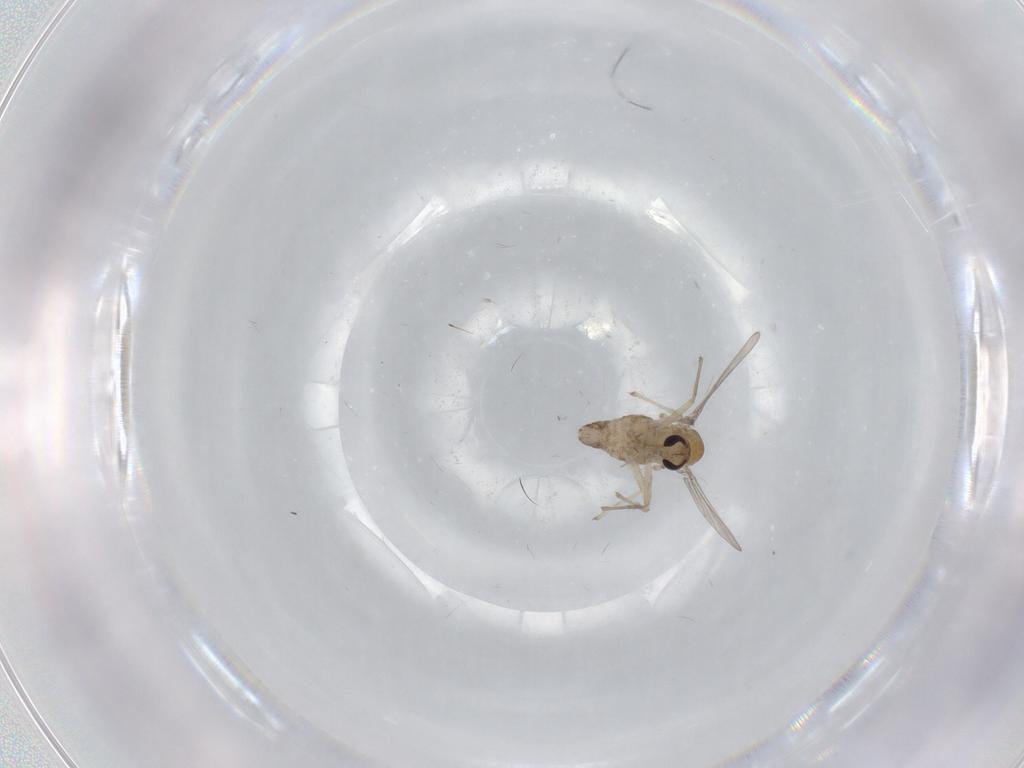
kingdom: Animalia
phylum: Arthropoda
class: Insecta
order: Diptera
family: Chironomidae
